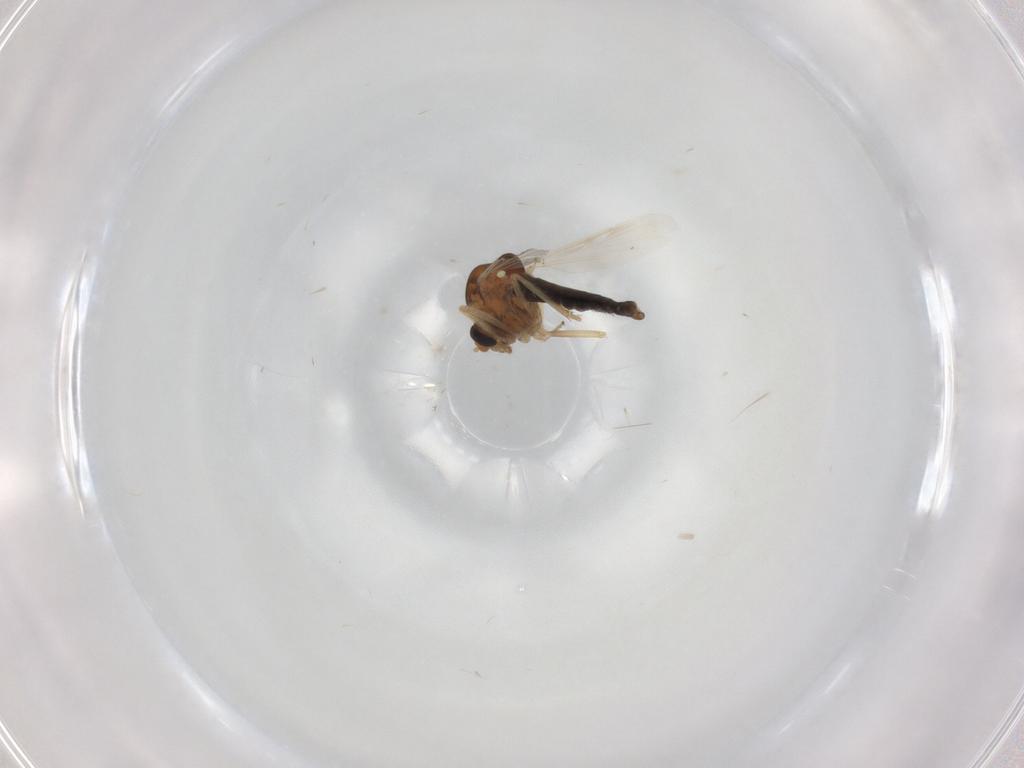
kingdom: Animalia
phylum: Arthropoda
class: Insecta
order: Diptera
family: Ceratopogonidae
